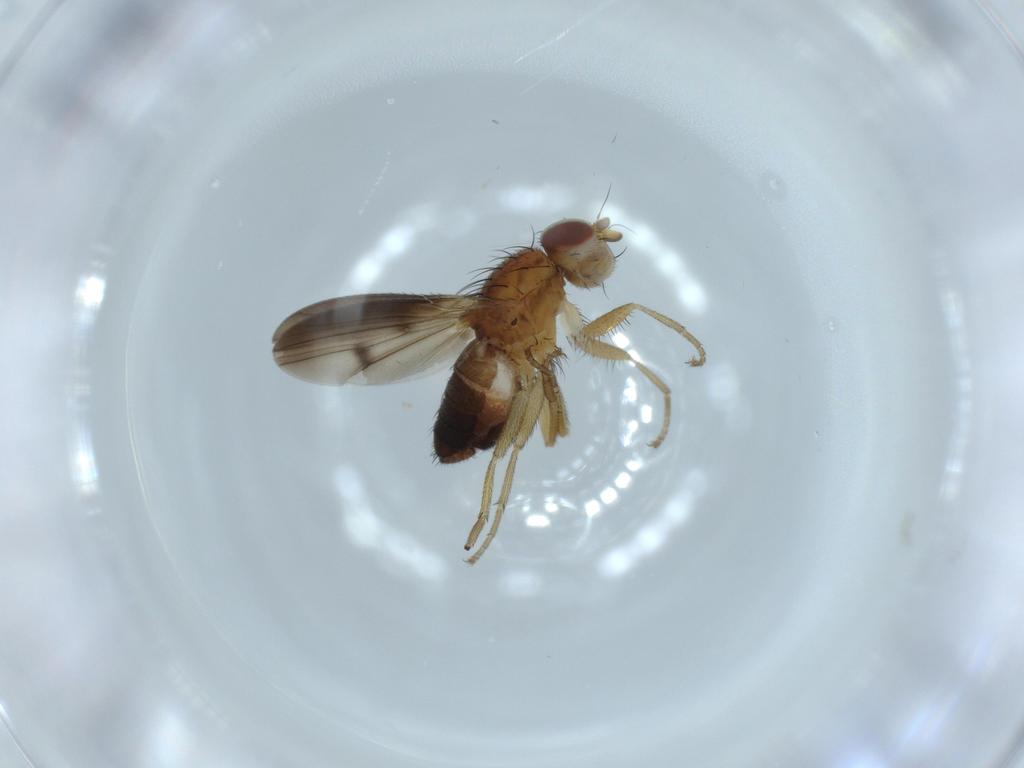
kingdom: Animalia
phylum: Arthropoda
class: Insecta
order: Diptera
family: Heleomyzidae
